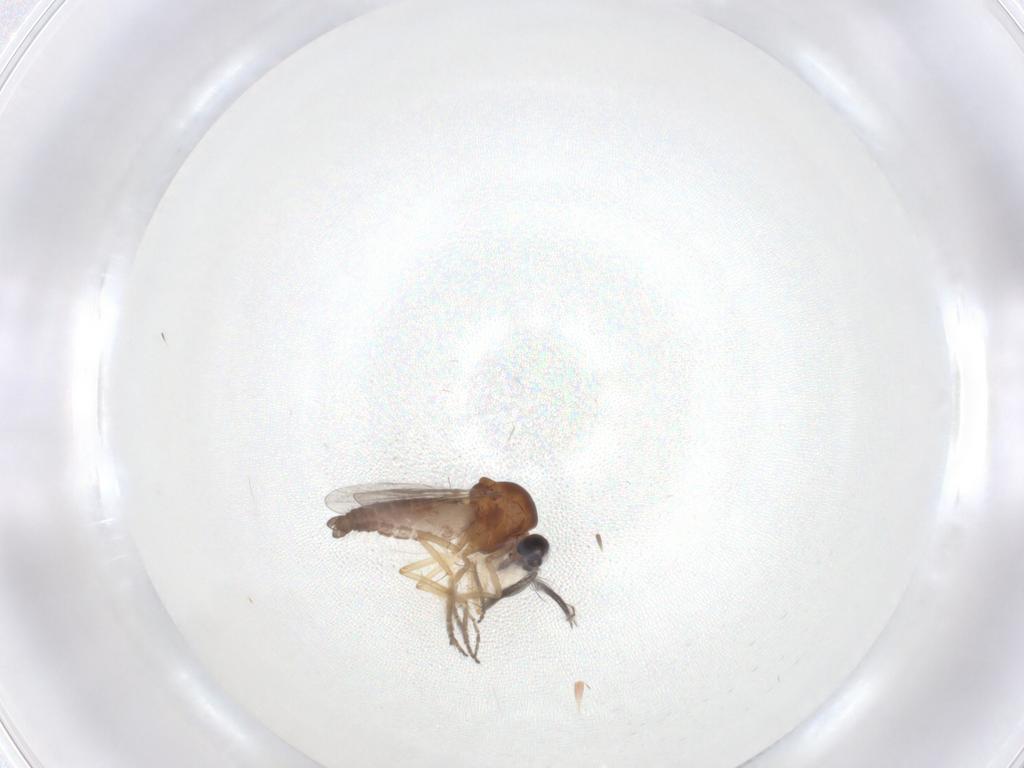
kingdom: Animalia
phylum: Arthropoda
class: Insecta
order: Diptera
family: Ceratopogonidae
